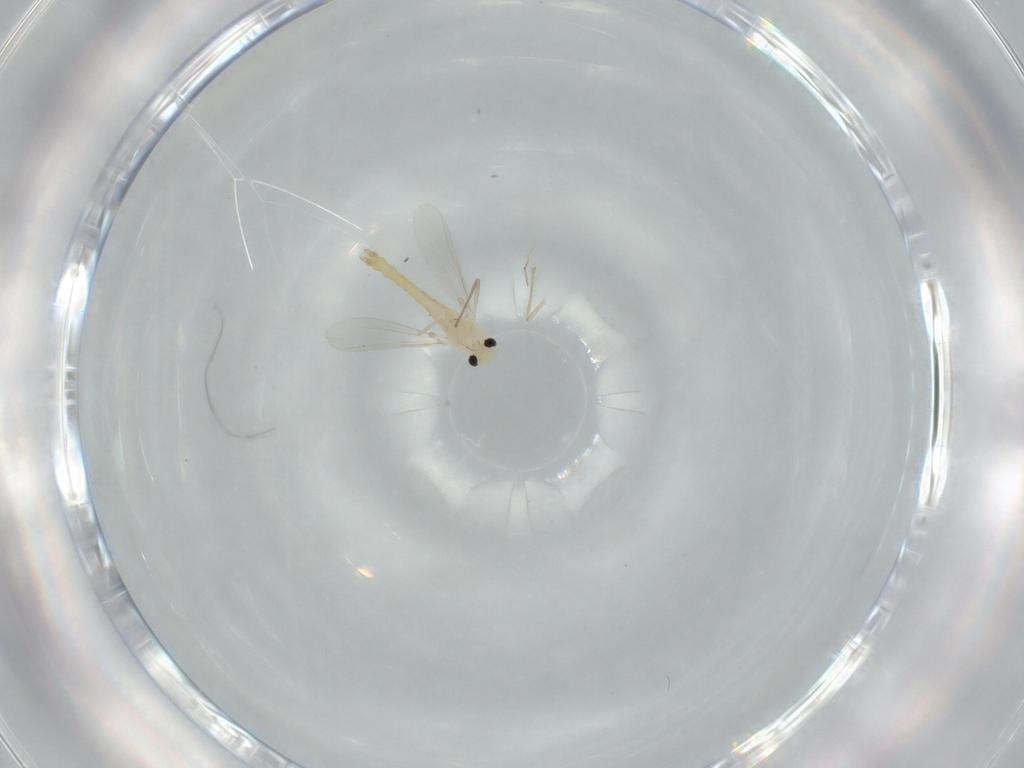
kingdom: Animalia
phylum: Arthropoda
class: Insecta
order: Diptera
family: Chironomidae
